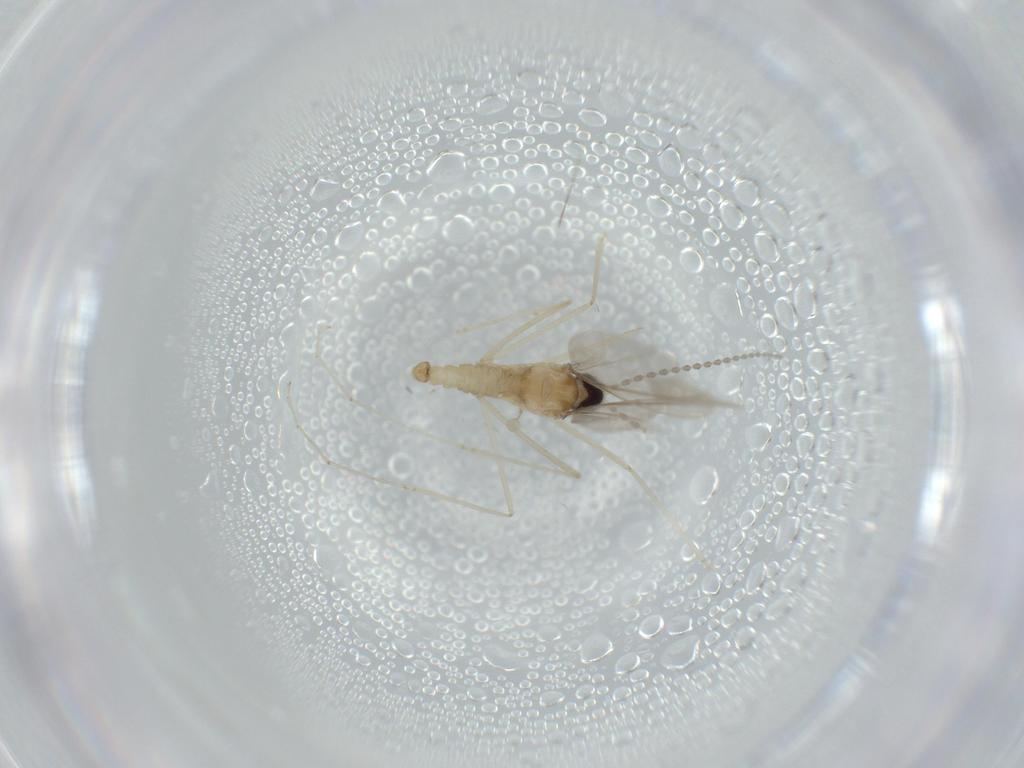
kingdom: Animalia
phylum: Arthropoda
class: Insecta
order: Diptera
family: Cecidomyiidae
